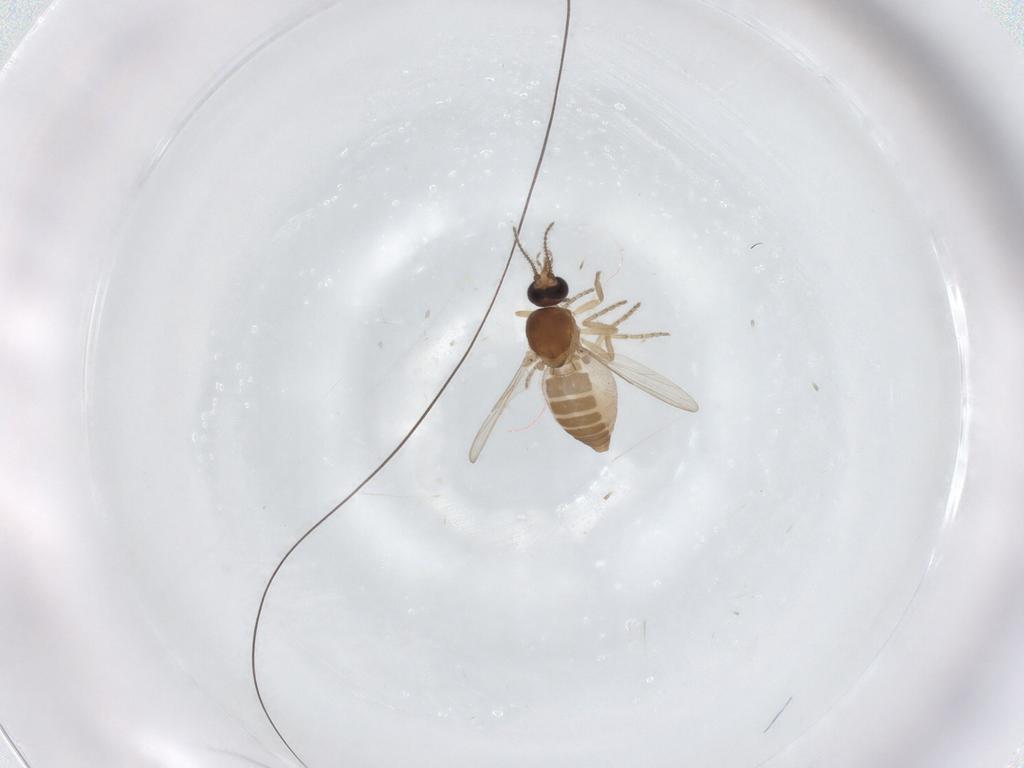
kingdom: Animalia
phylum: Arthropoda
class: Insecta
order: Diptera
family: Ceratopogonidae
